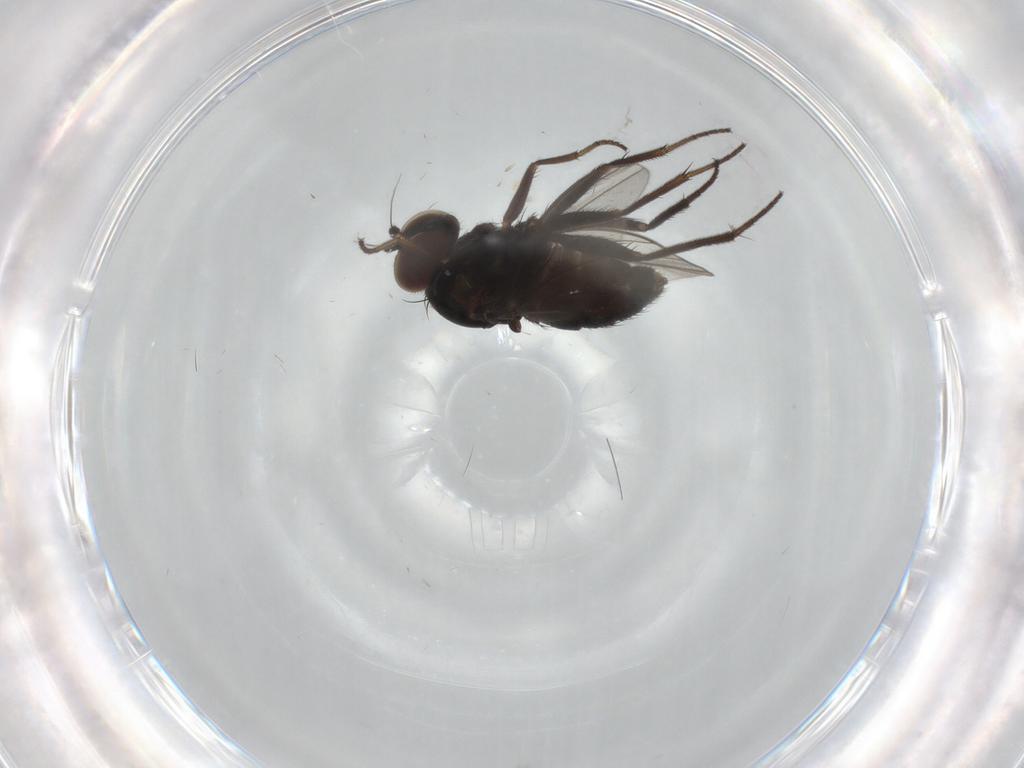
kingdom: Animalia
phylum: Arthropoda
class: Insecta
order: Diptera
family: Dolichopodidae
